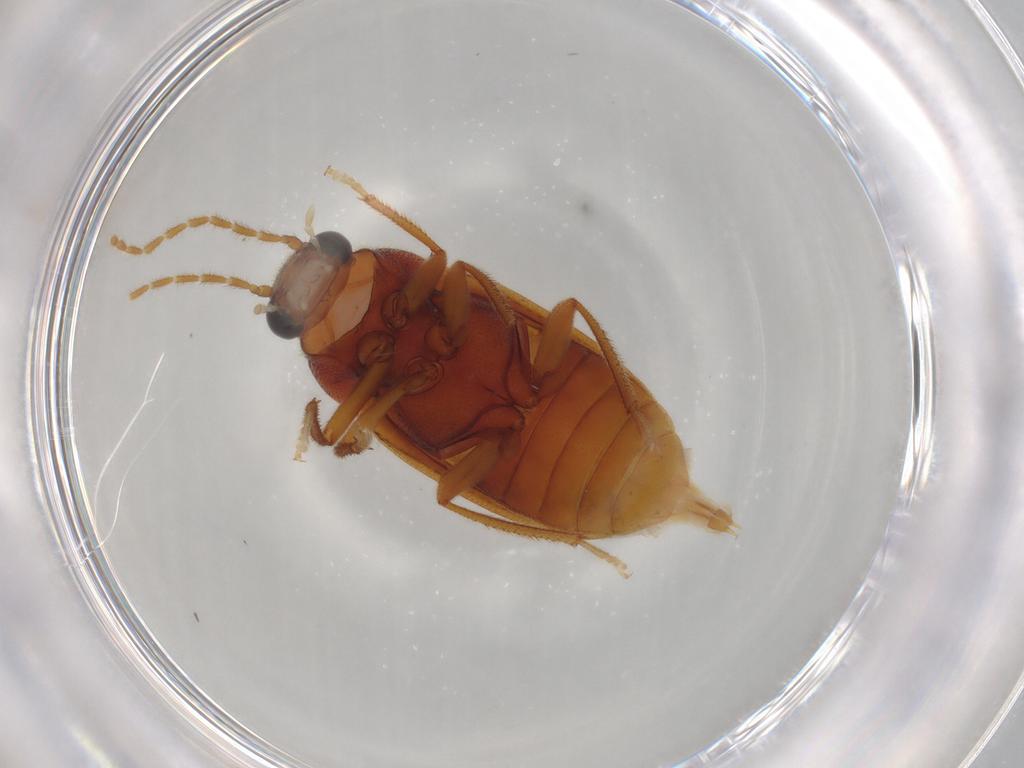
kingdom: Animalia
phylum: Arthropoda
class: Insecta
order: Coleoptera
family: Ptilodactylidae
